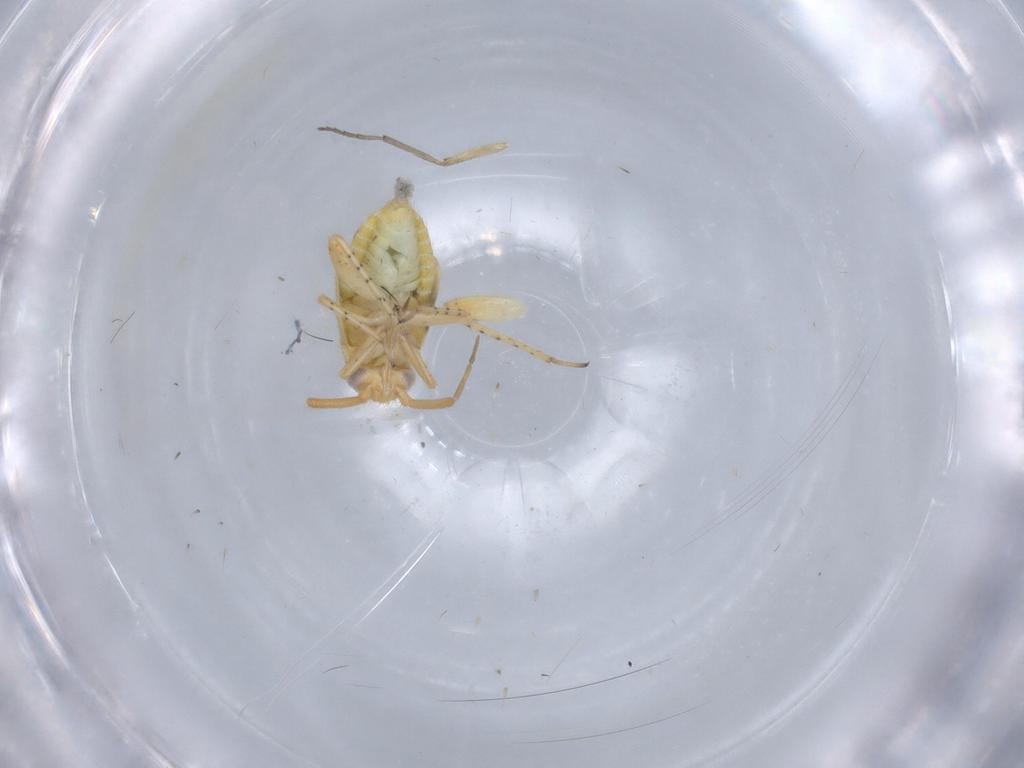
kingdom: Animalia
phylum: Arthropoda
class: Insecta
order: Hemiptera
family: Miridae
